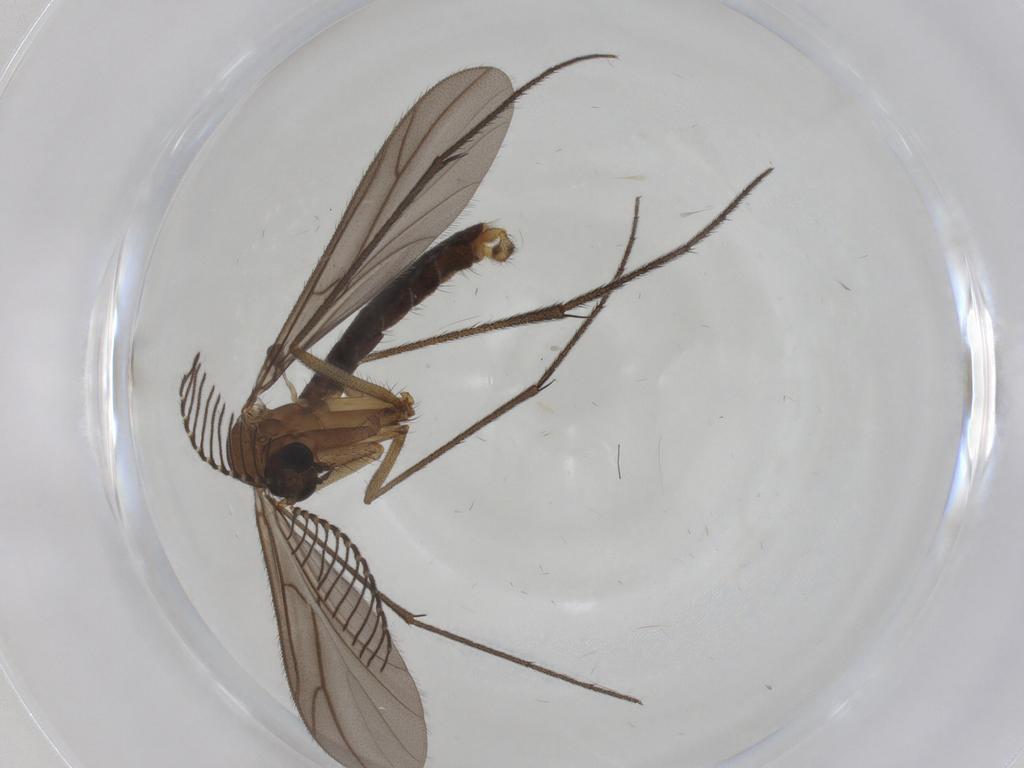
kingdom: Animalia
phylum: Arthropoda
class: Insecta
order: Diptera
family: Ditomyiidae
